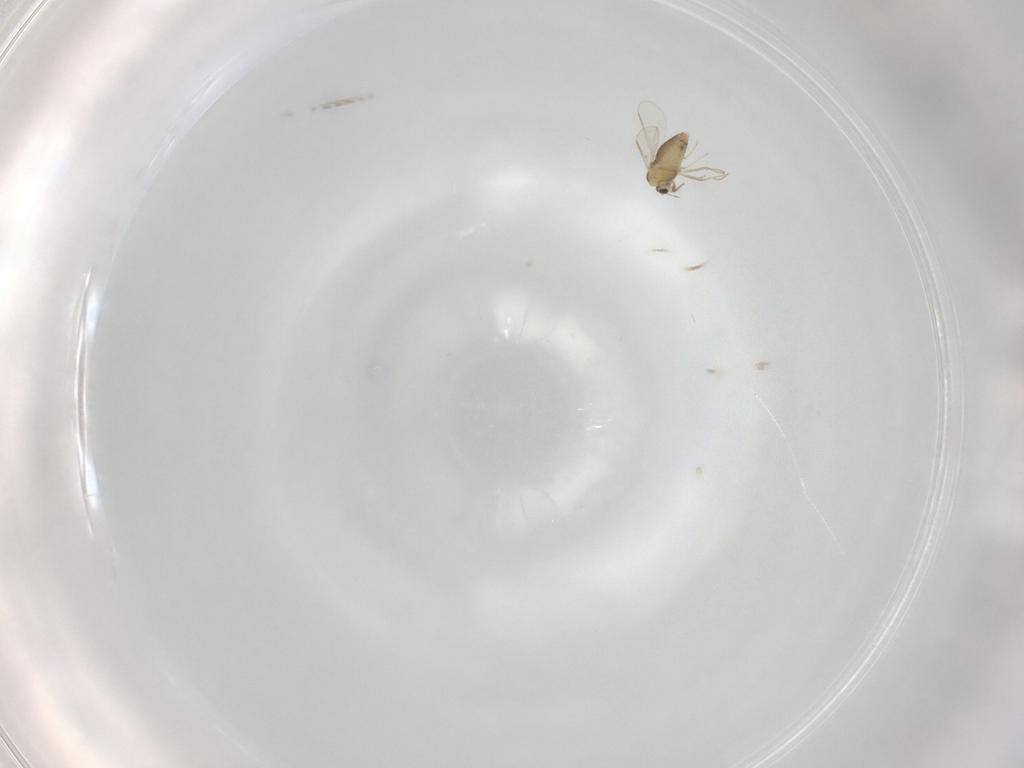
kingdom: Animalia
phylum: Arthropoda
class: Insecta
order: Diptera
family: Chironomidae
